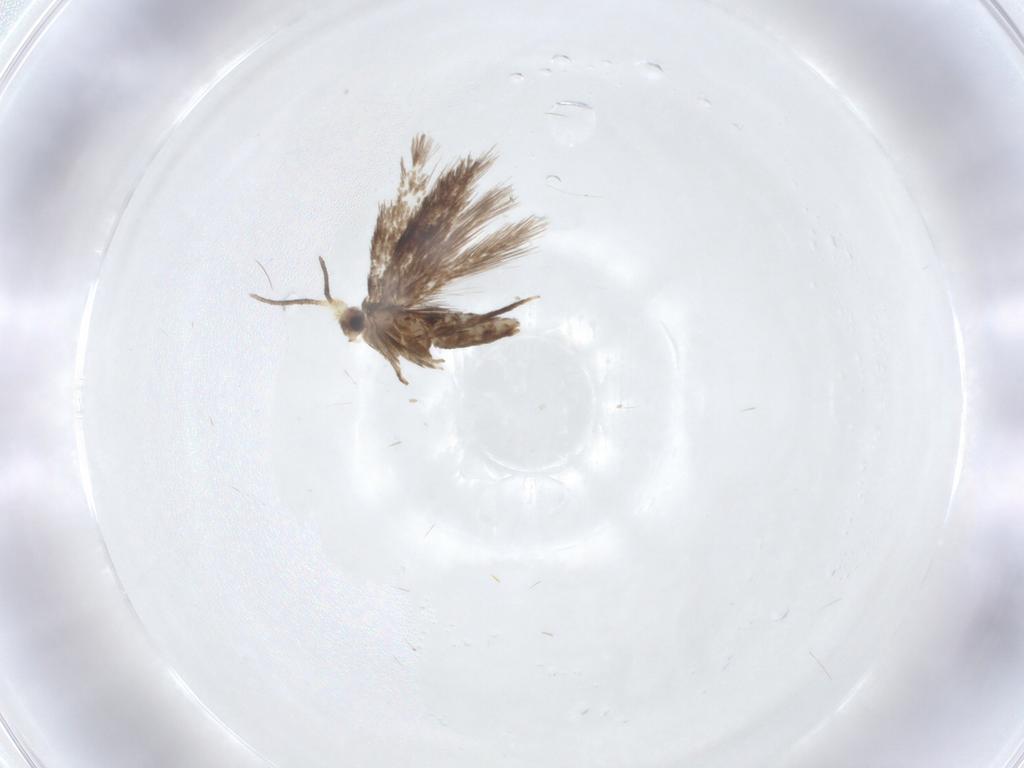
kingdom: Animalia
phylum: Arthropoda
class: Insecta
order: Lepidoptera
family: Nepticulidae
